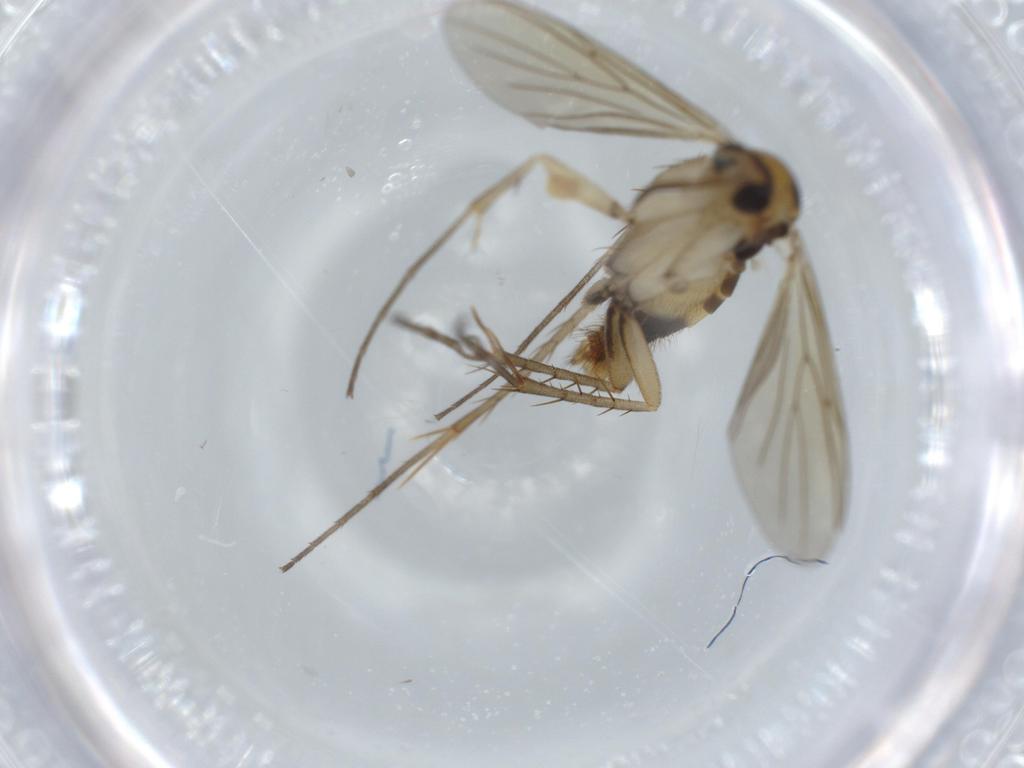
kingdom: Animalia
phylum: Arthropoda
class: Insecta
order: Diptera
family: Mycetophilidae
